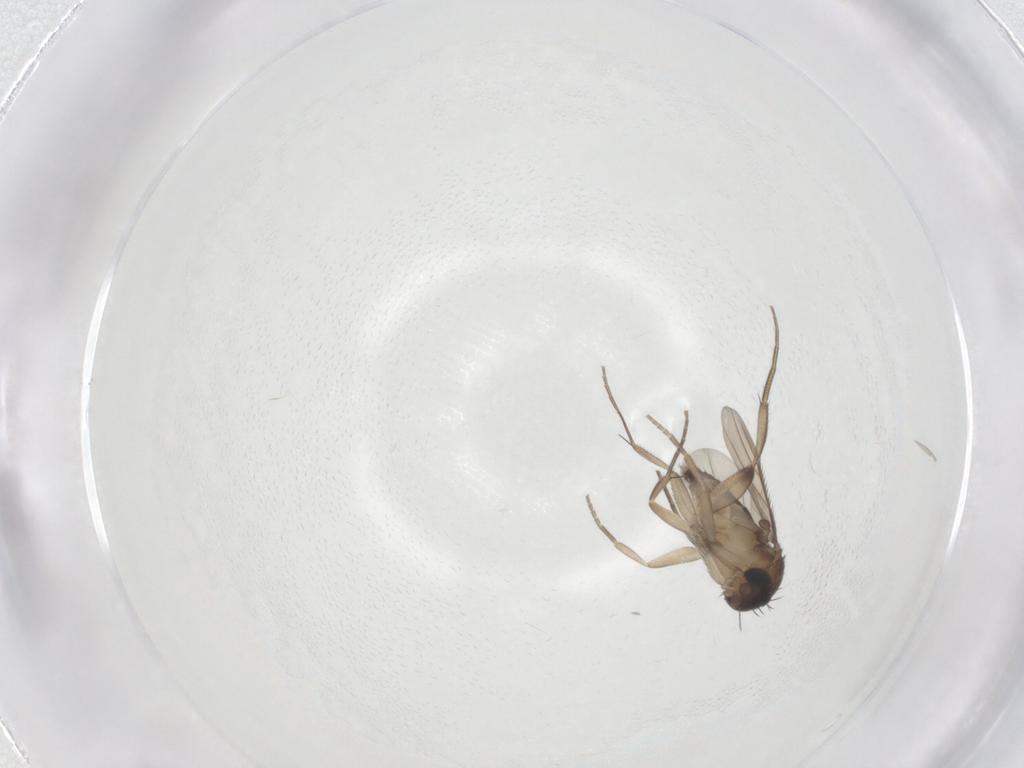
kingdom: Animalia
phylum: Arthropoda
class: Insecta
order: Diptera
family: Phoridae
